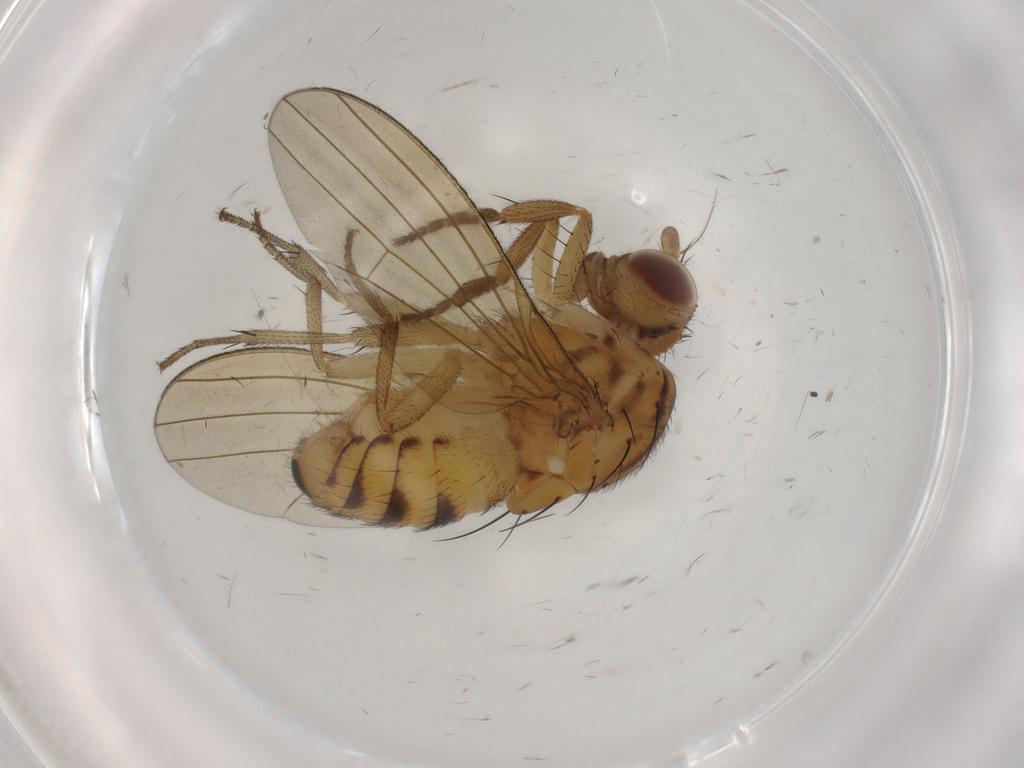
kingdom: Animalia
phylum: Arthropoda
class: Insecta
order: Diptera
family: Lauxaniidae
